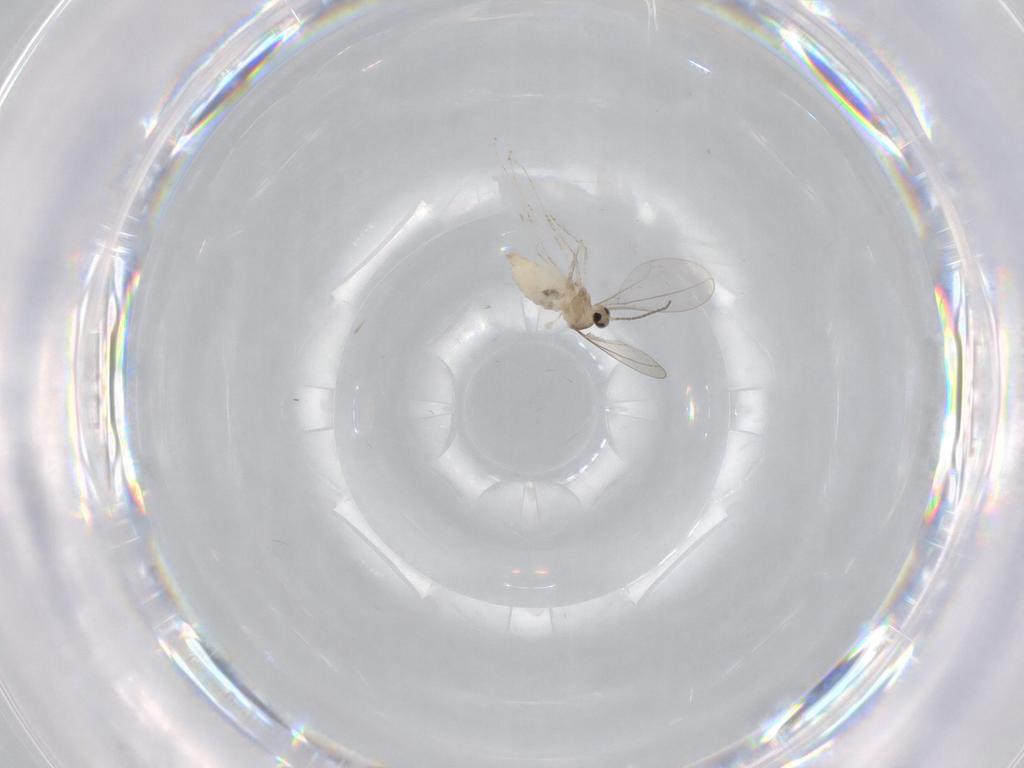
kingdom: Animalia
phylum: Arthropoda
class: Insecta
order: Diptera
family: Cecidomyiidae
